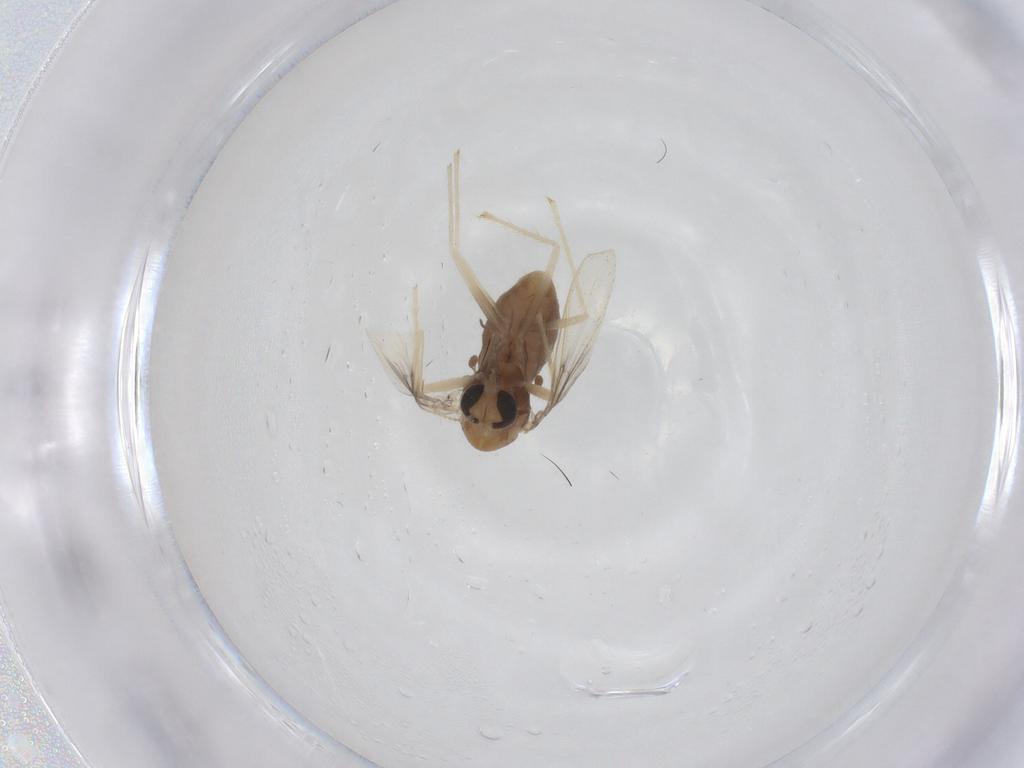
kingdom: Animalia
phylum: Arthropoda
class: Insecta
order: Diptera
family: Chironomidae
